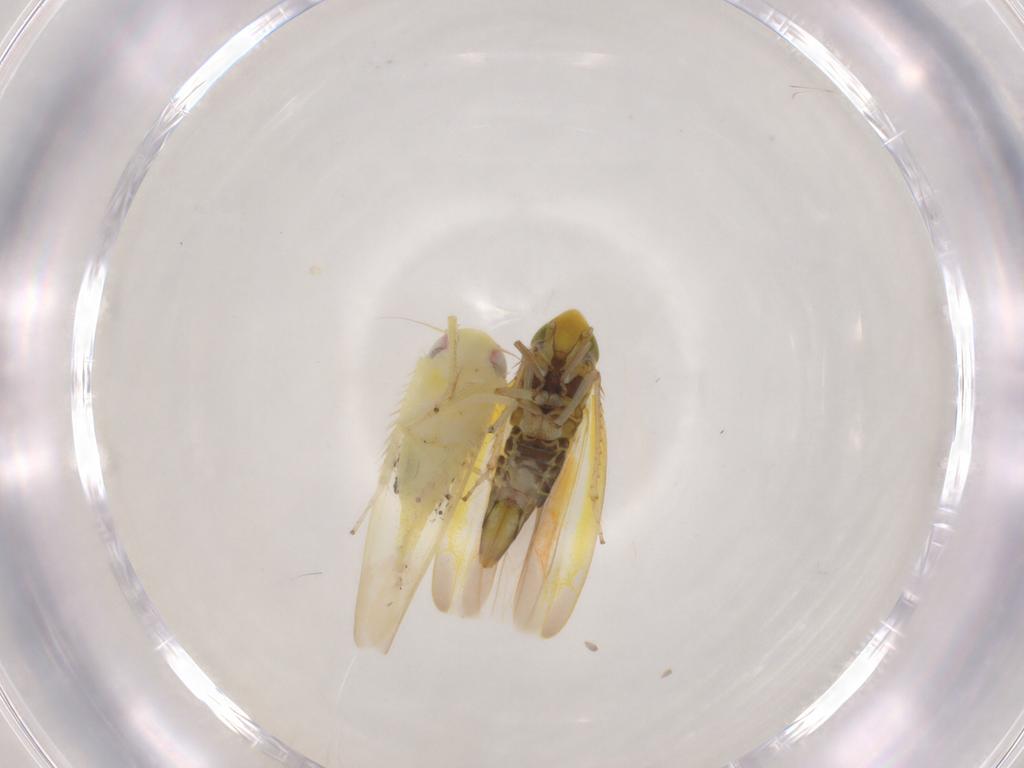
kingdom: Animalia
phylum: Arthropoda
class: Insecta
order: Hemiptera
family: Cicadellidae
